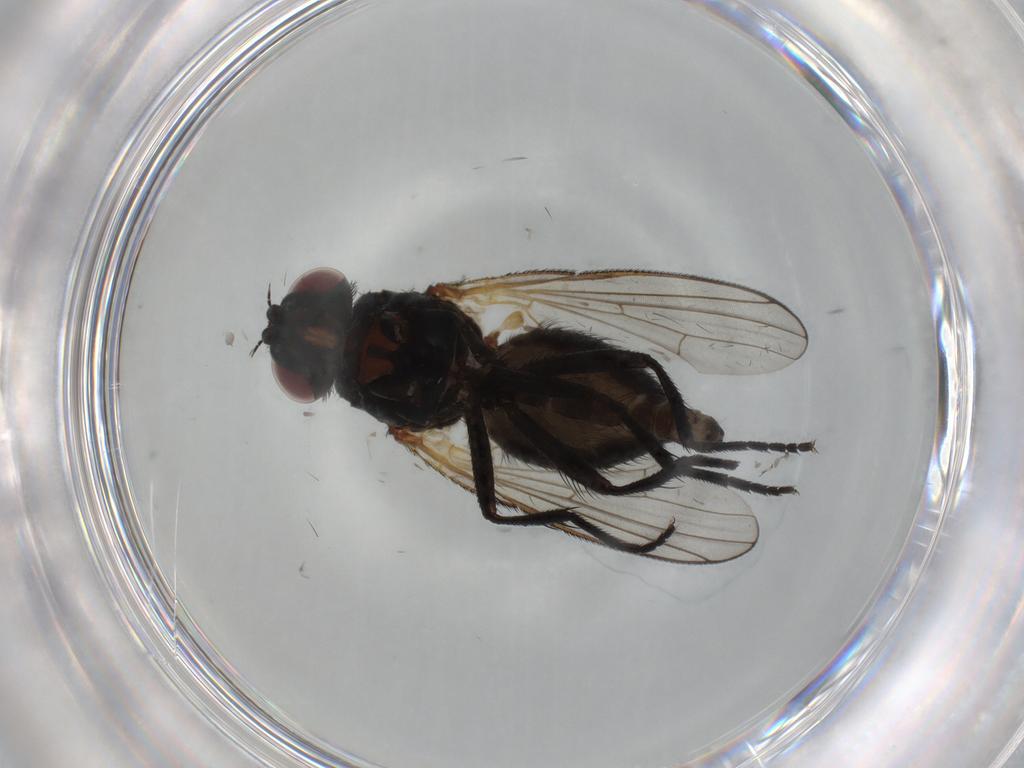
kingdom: Animalia
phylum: Arthropoda
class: Insecta
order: Diptera
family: Fannia
